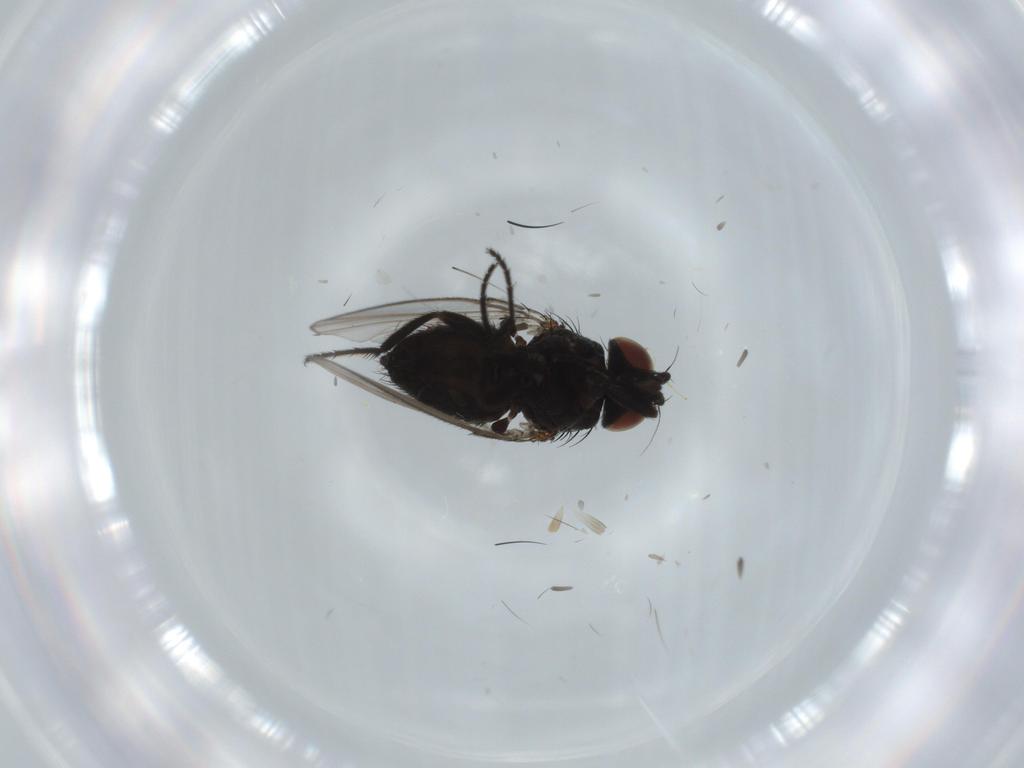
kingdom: Animalia
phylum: Arthropoda
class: Insecta
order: Diptera
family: Milichiidae
